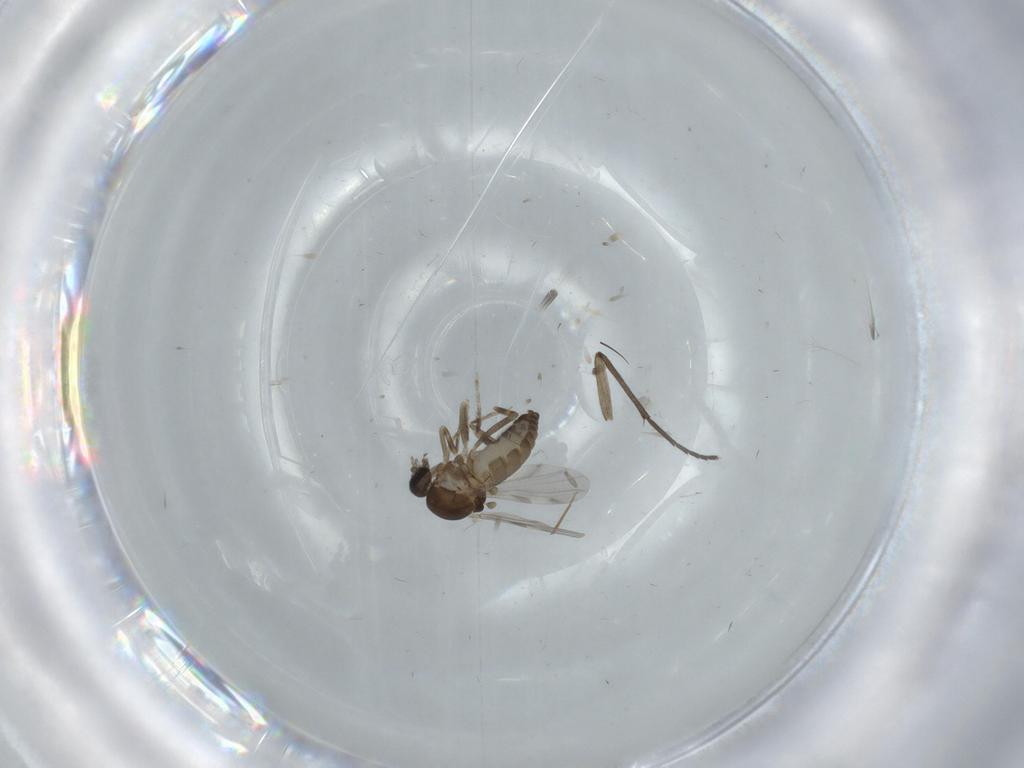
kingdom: Animalia
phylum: Arthropoda
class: Insecta
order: Diptera
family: Ceratopogonidae
